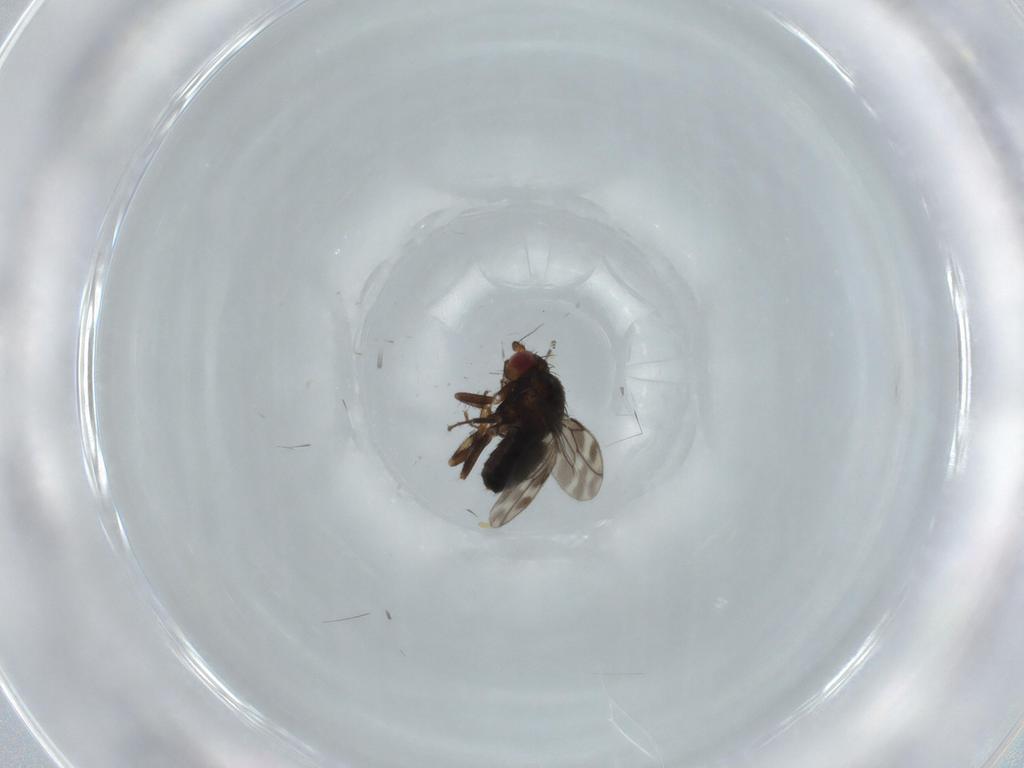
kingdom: Animalia
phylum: Arthropoda
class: Insecta
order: Diptera
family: Sphaeroceridae
